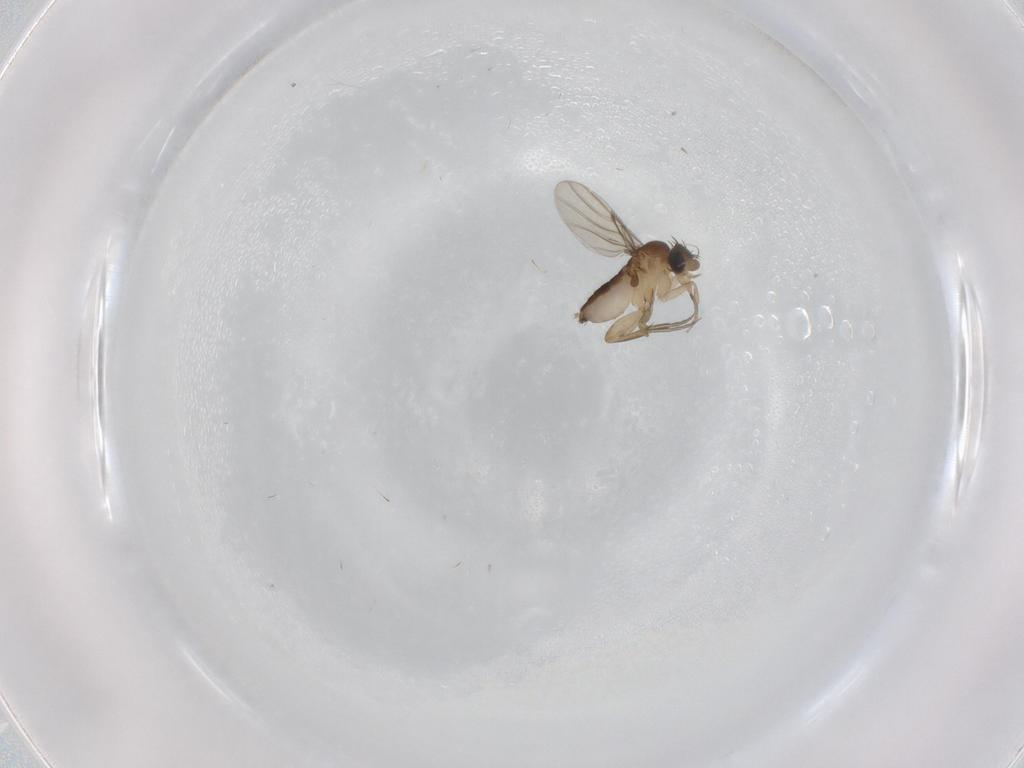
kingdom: Animalia
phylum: Arthropoda
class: Insecta
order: Diptera
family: Phoridae
